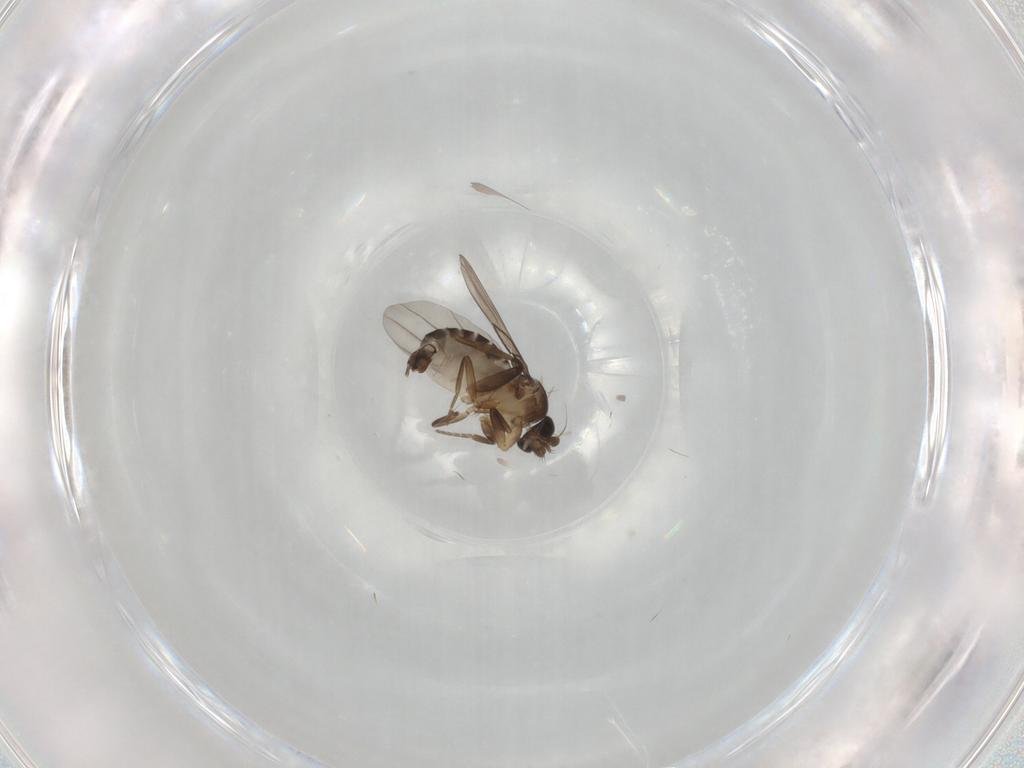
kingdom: Animalia
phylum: Arthropoda
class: Insecta
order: Diptera
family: Phoridae
